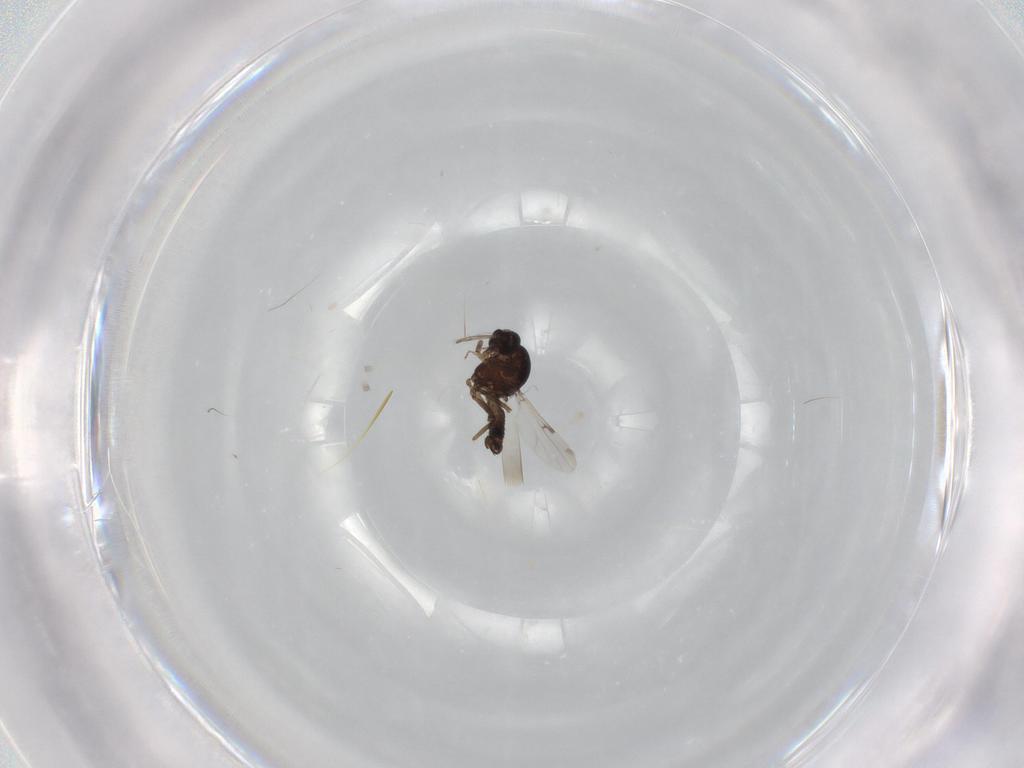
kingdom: Animalia
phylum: Arthropoda
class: Insecta
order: Diptera
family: Ceratopogonidae
